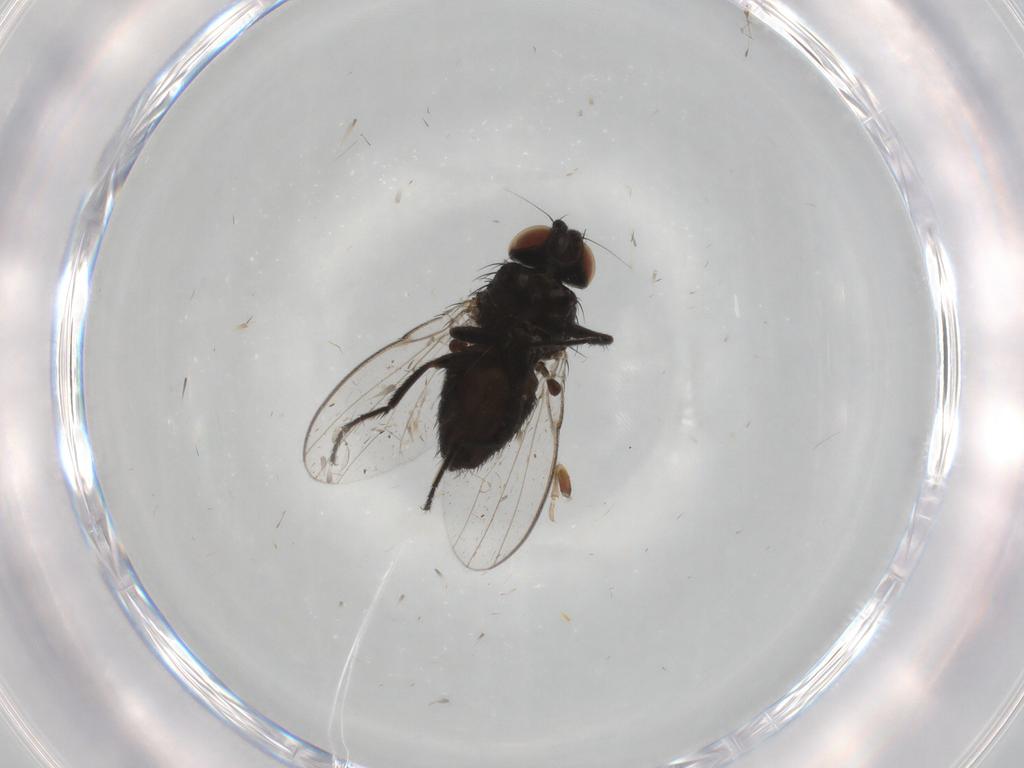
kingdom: Animalia
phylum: Arthropoda
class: Insecta
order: Diptera
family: Milichiidae
